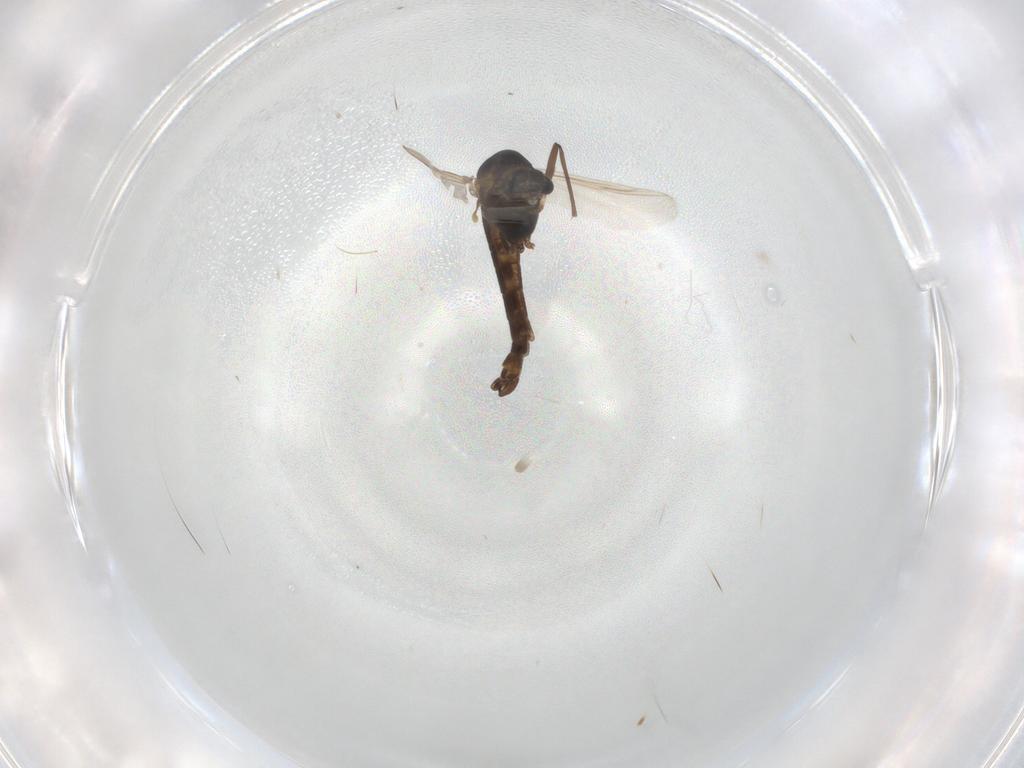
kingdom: Animalia
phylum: Arthropoda
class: Insecta
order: Diptera
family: Chironomidae
